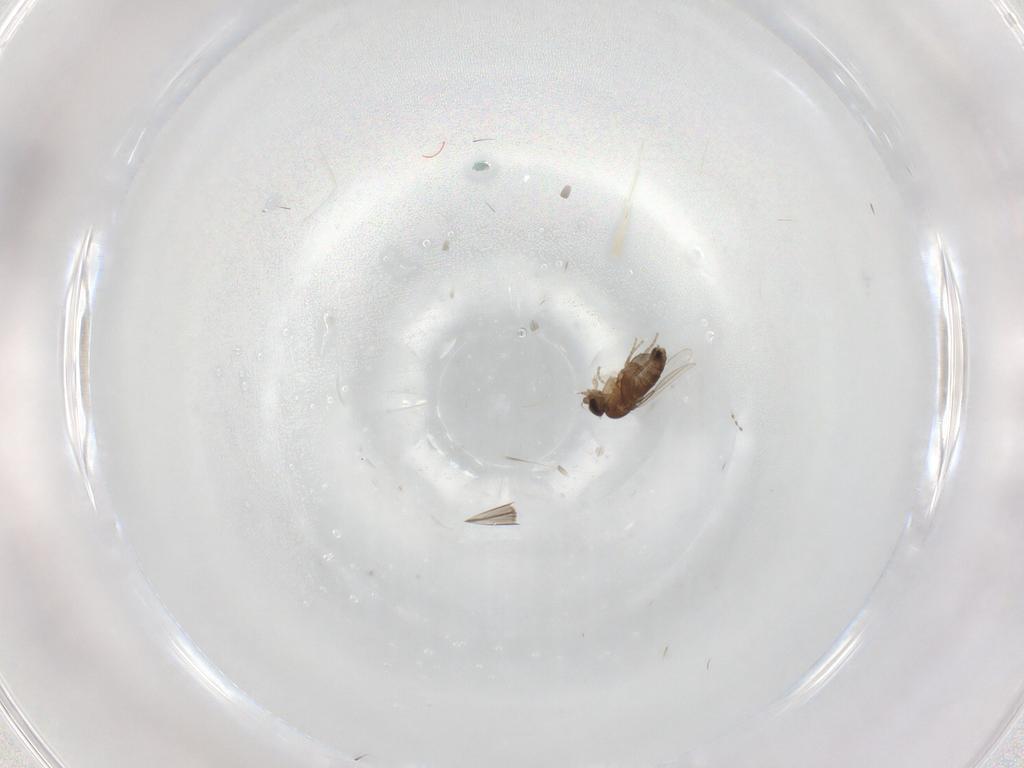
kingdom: Animalia
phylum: Arthropoda
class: Insecta
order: Diptera
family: Phoridae
